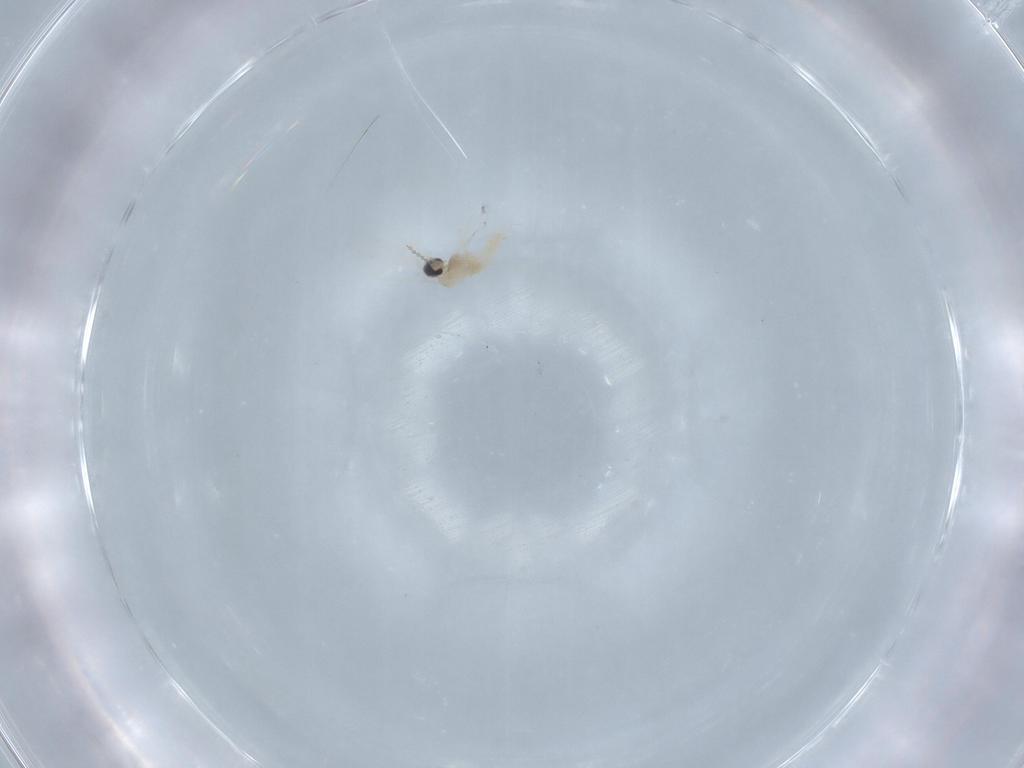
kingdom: Animalia
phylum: Arthropoda
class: Insecta
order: Diptera
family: Cecidomyiidae
